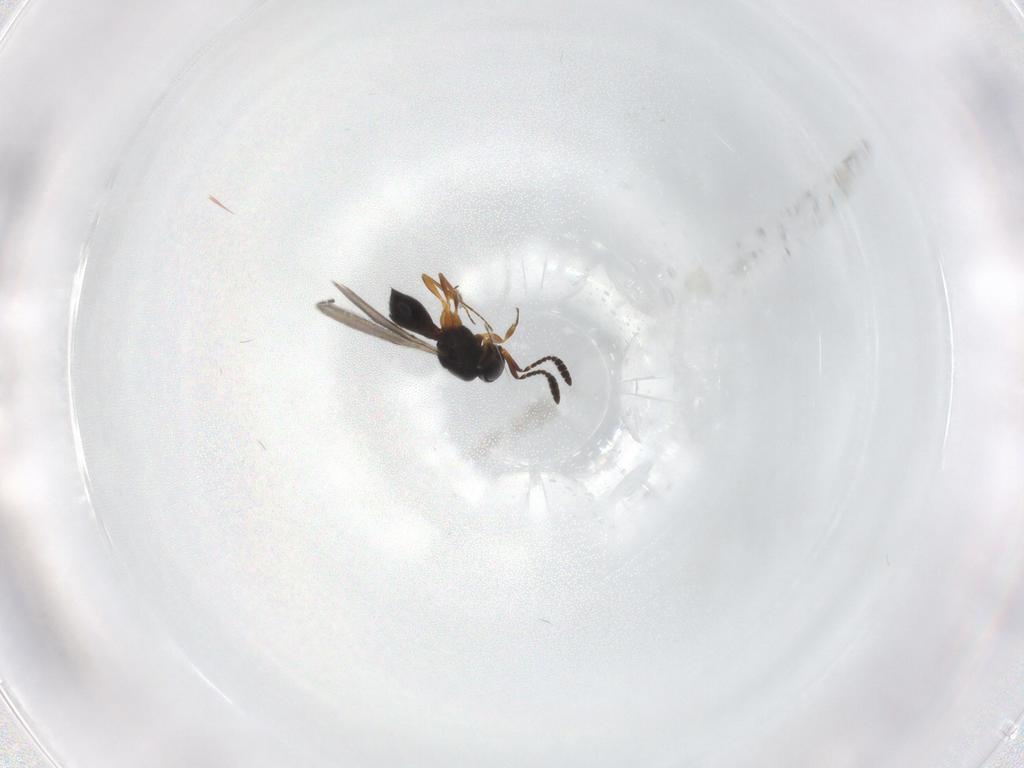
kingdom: Animalia
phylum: Arthropoda
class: Insecta
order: Hymenoptera
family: Scelionidae
